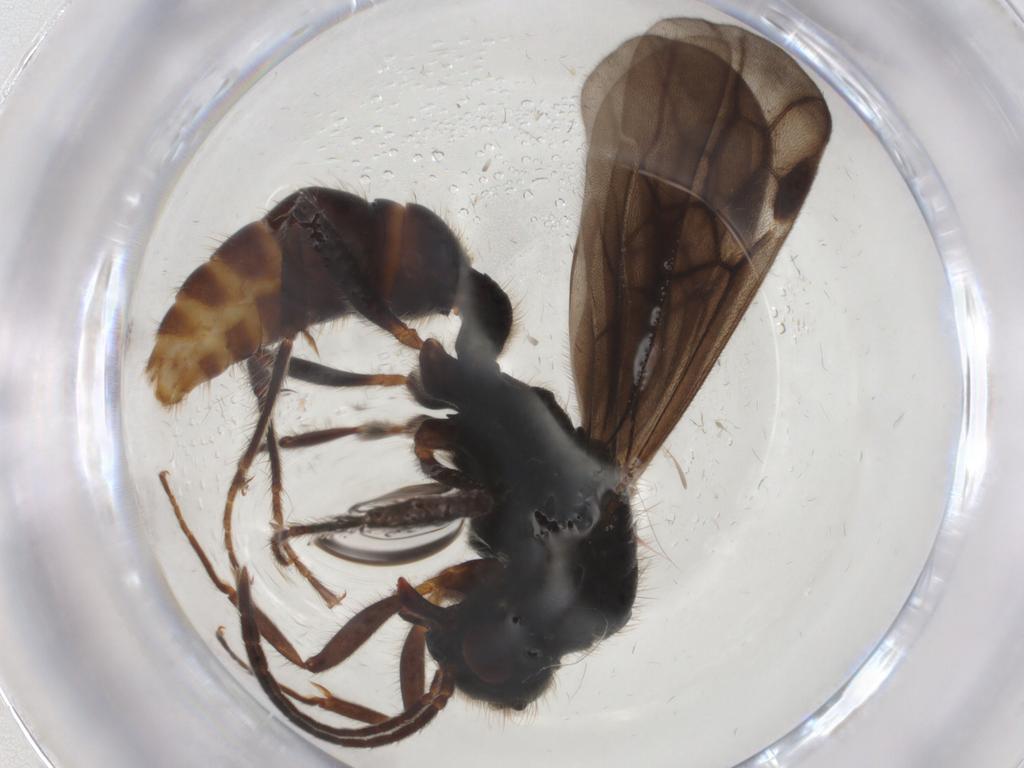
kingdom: Animalia
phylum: Arthropoda
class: Insecta
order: Hymenoptera
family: Formicidae
